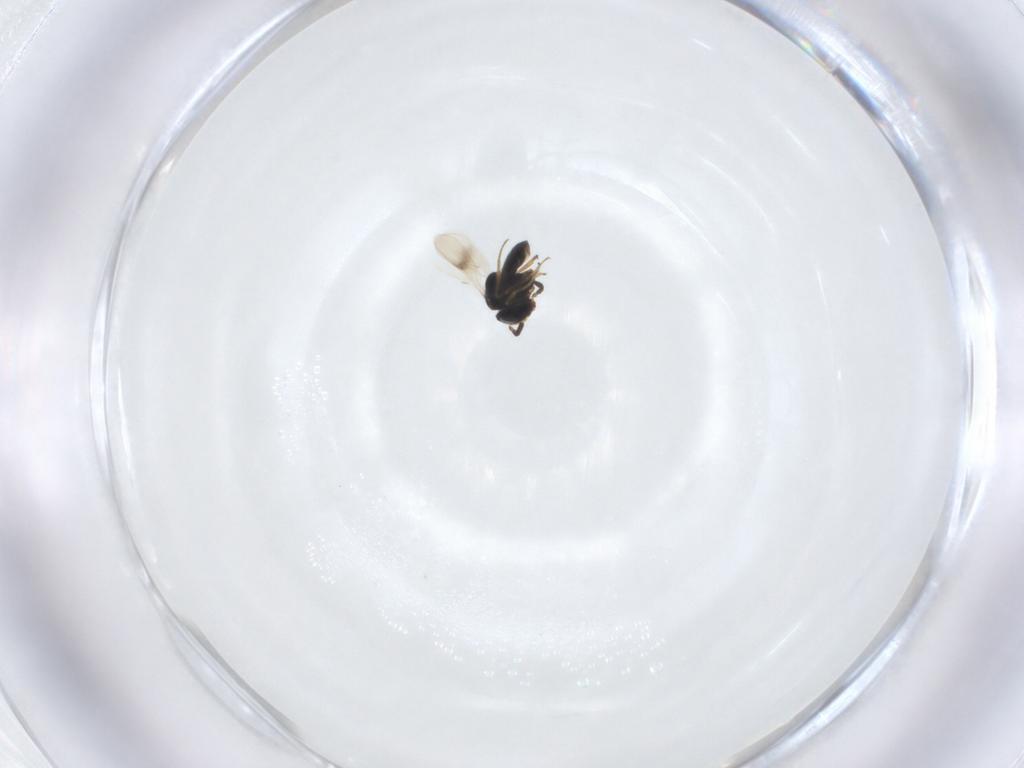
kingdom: Animalia
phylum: Arthropoda
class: Insecta
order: Hymenoptera
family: Scelionidae
